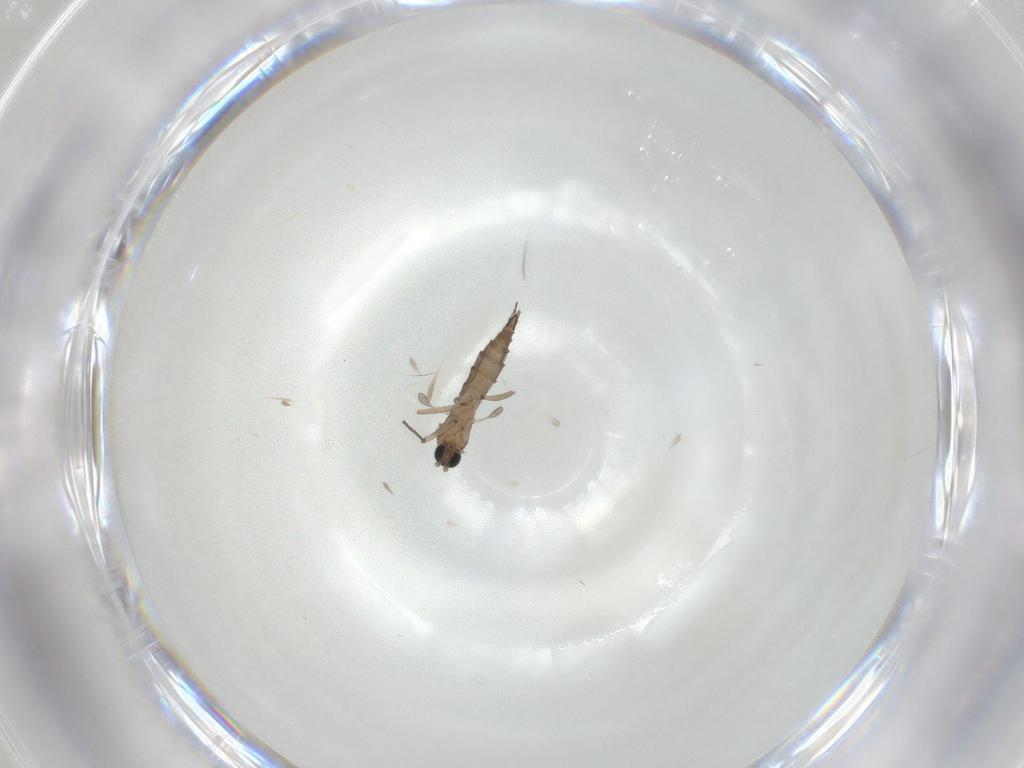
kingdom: Animalia
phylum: Arthropoda
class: Insecta
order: Diptera
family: Sciaridae
